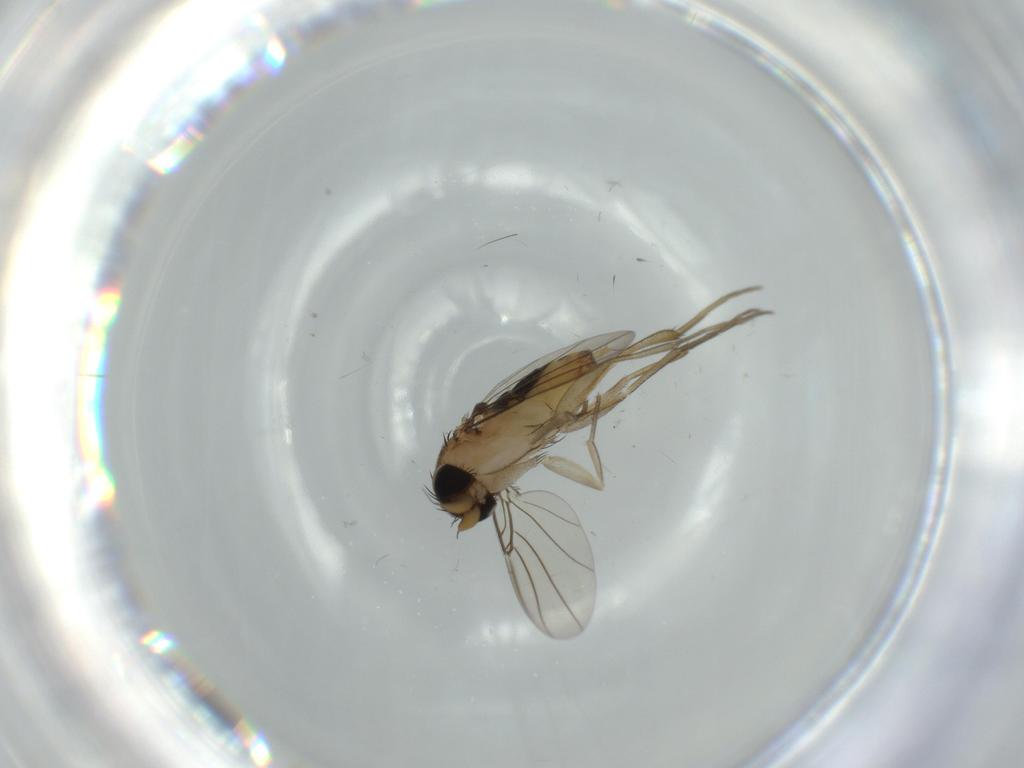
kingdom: Animalia
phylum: Arthropoda
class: Insecta
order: Diptera
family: Phoridae
